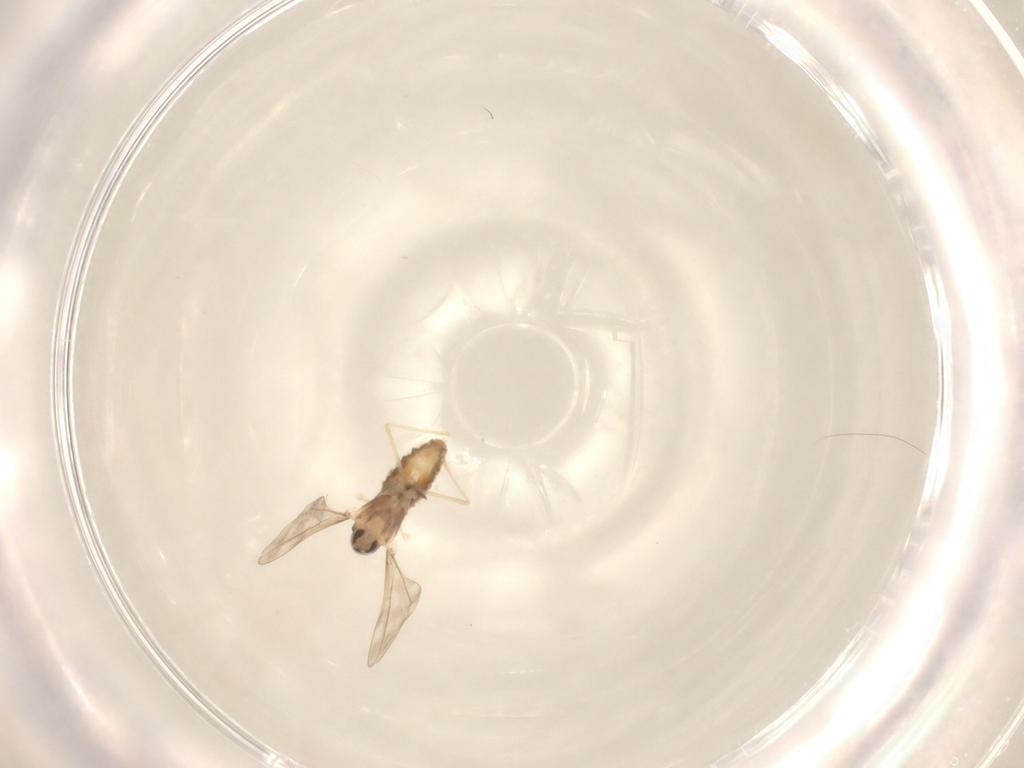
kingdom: Animalia
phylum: Arthropoda
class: Insecta
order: Diptera
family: Cecidomyiidae
